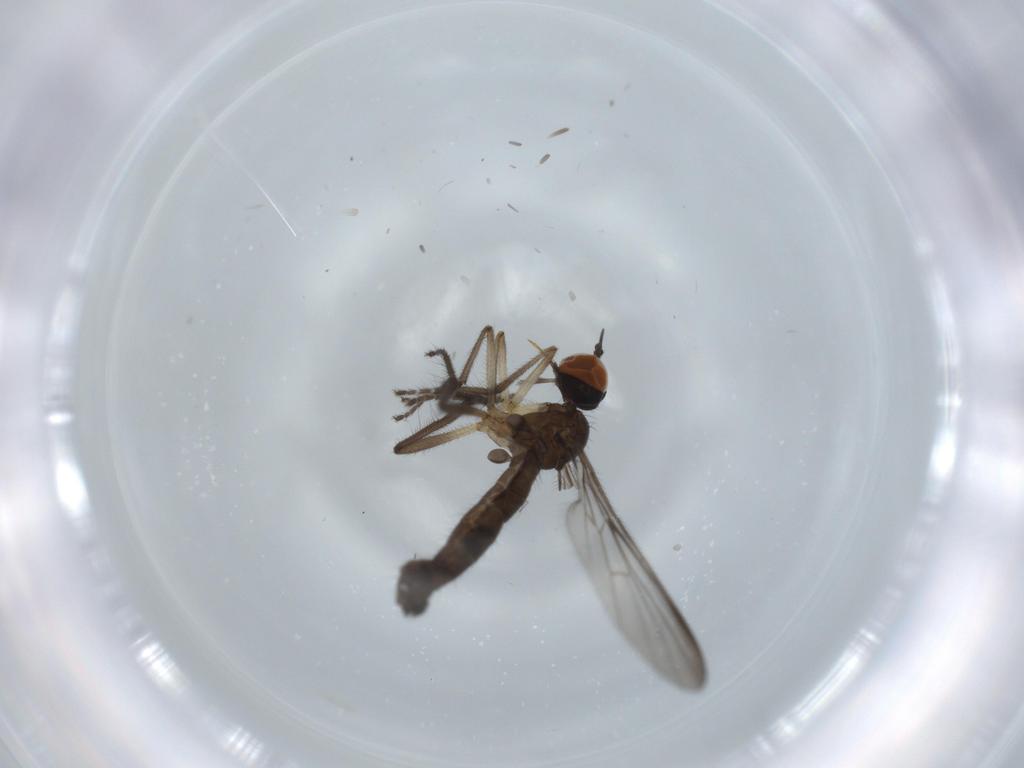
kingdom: Animalia
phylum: Arthropoda
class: Insecta
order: Diptera
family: Empididae
